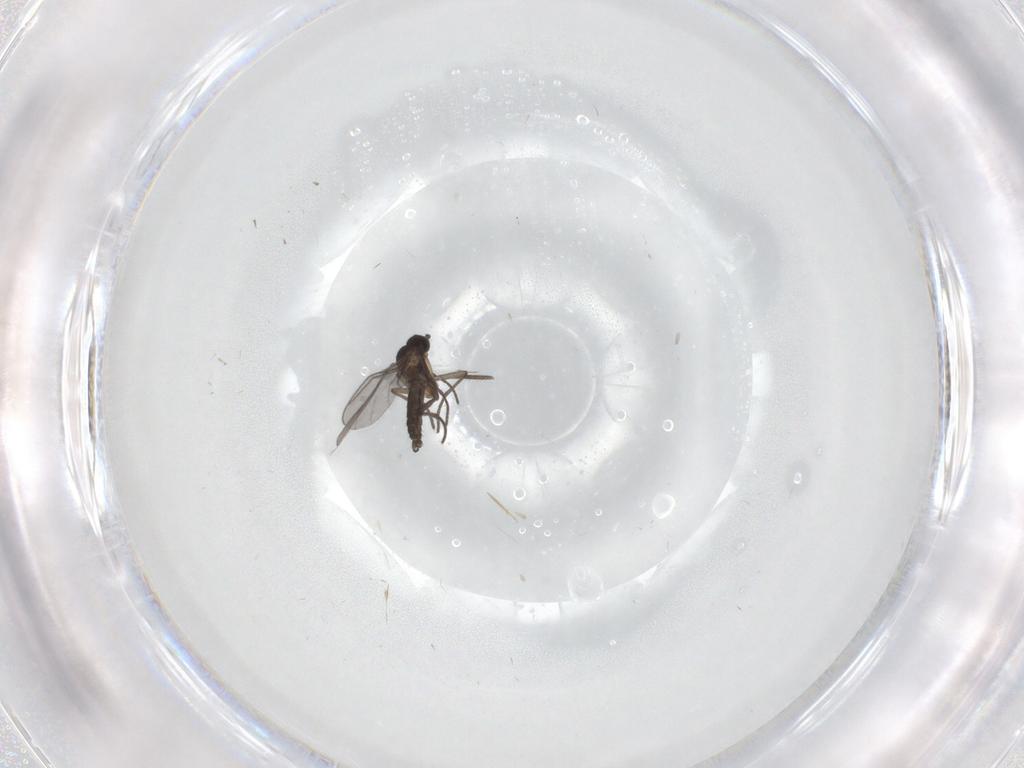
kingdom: Animalia
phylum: Arthropoda
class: Insecta
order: Diptera
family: Sciaridae
